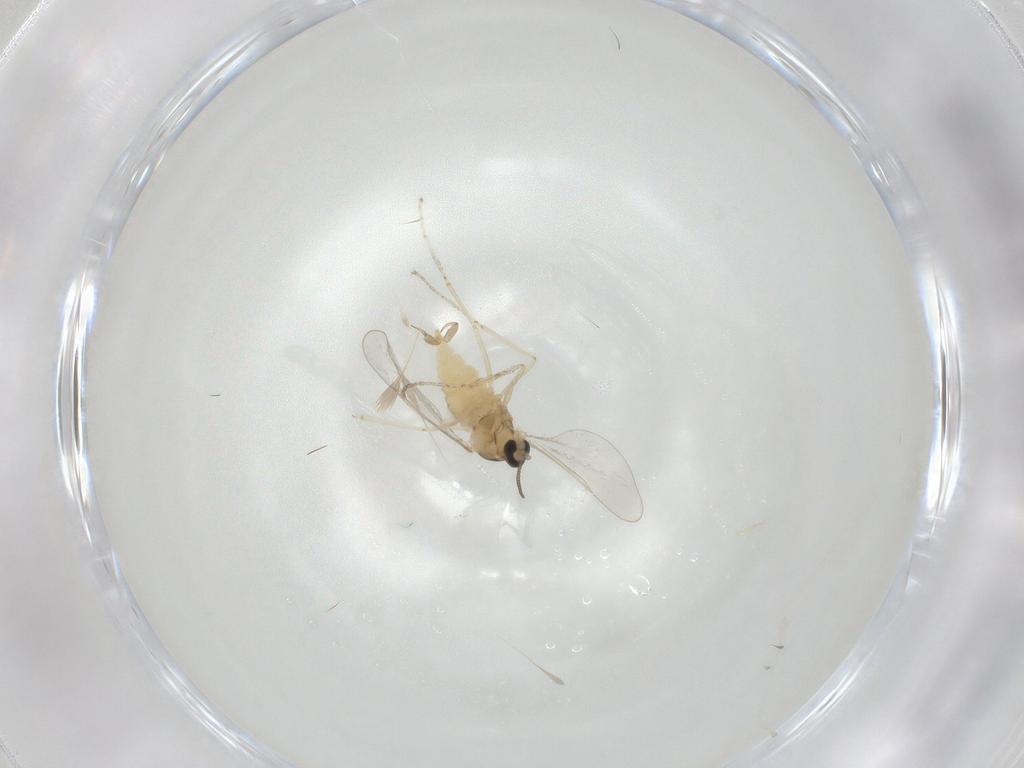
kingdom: Animalia
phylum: Arthropoda
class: Insecta
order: Diptera
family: Cecidomyiidae
